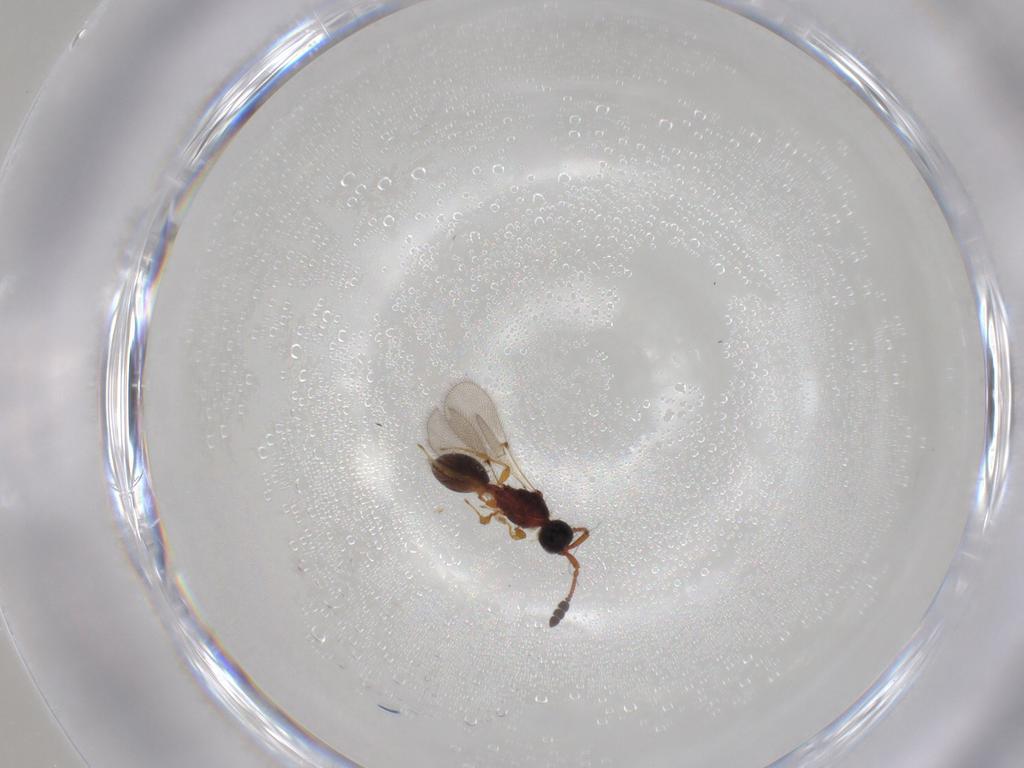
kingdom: Animalia
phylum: Arthropoda
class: Insecta
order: Hymenoptera
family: Diapriidae
